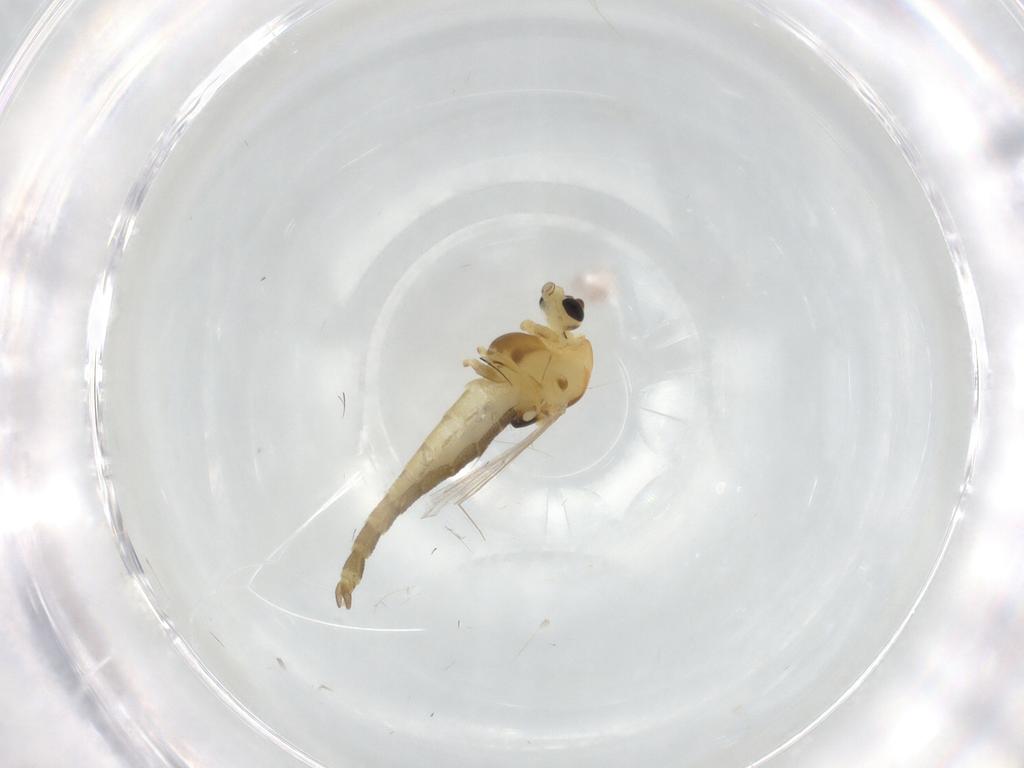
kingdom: Animalia
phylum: Arthropoda
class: Insecta
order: Diptera
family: Chironomidae
